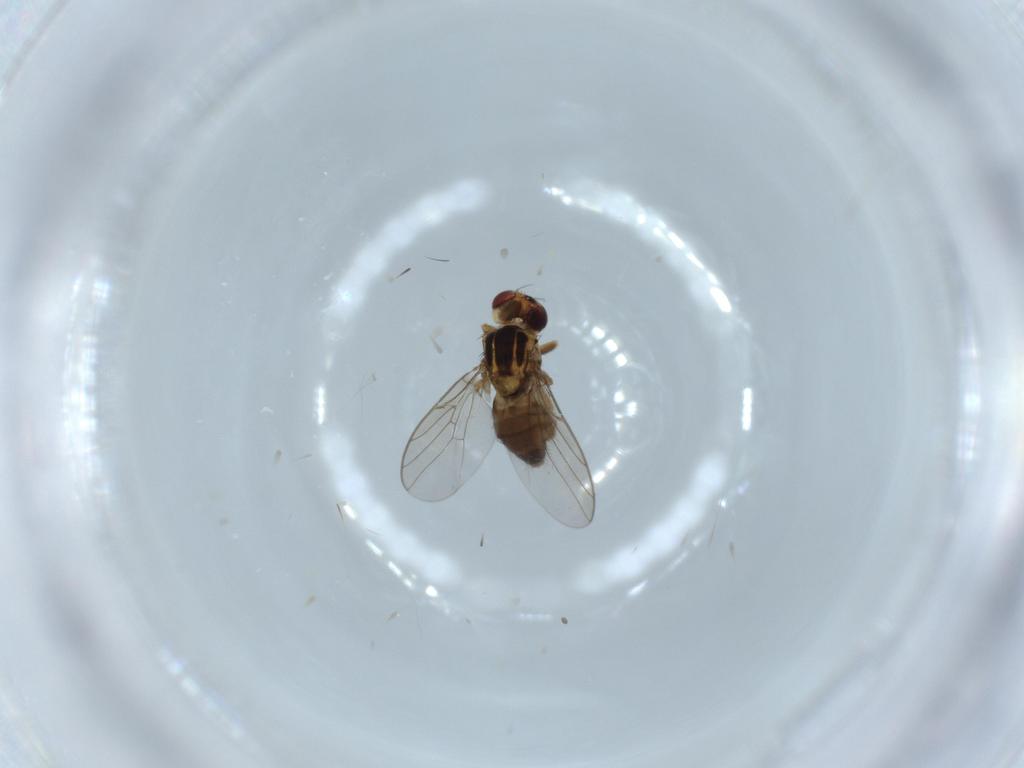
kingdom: Animalia
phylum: Arthropoda
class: Insecta
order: Diptera
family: Chloropidae
